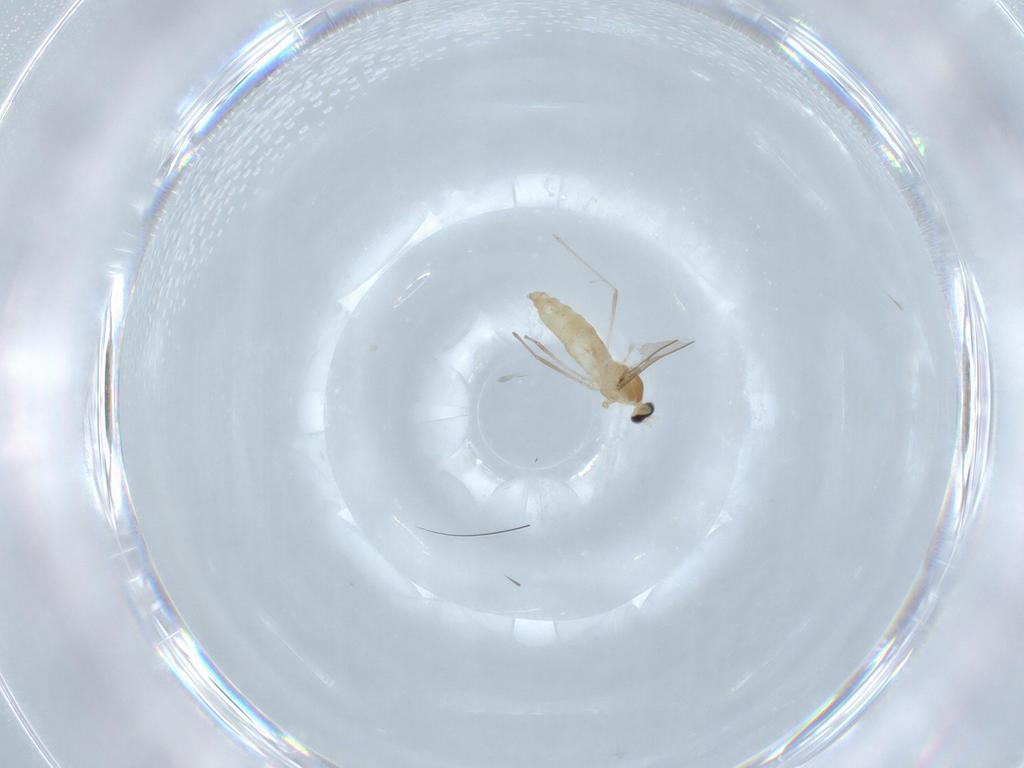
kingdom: Animalia
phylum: Arthropoda
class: Insecta
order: Diptera
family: Cecidomyiidae
